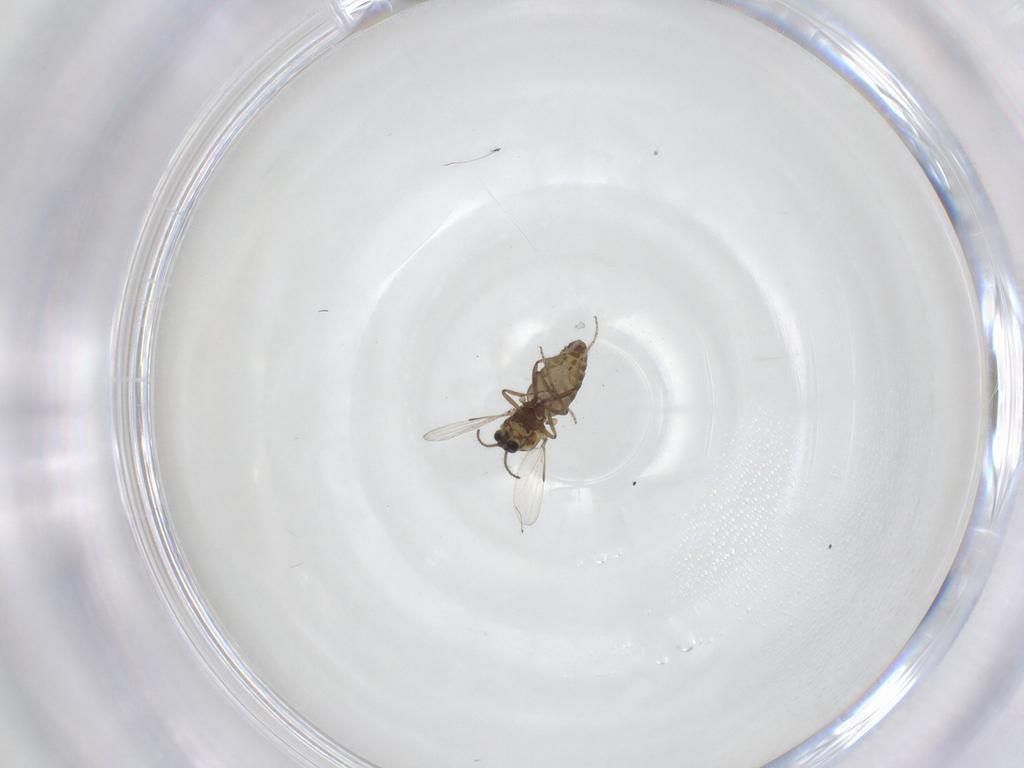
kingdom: Animalia
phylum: Arthropoda
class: Insecta
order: Diptera
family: Ceratopogonidae
